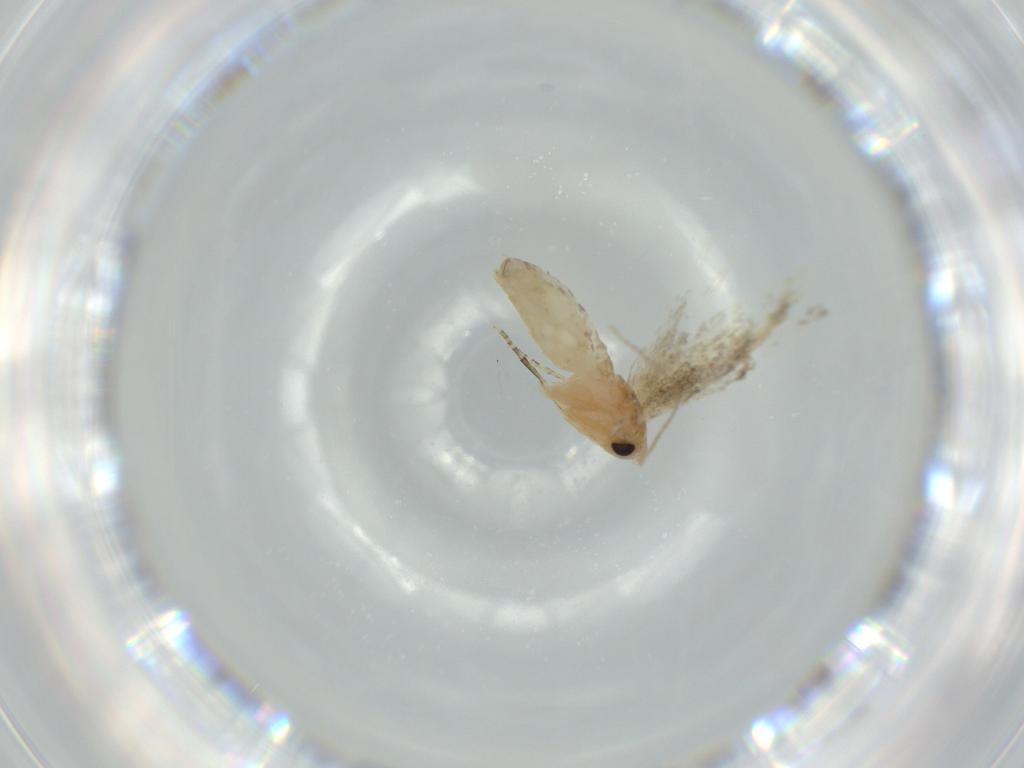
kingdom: Animalia
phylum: Arthropoda
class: Insecta
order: Lepidoptera
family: Bucculatricidae
